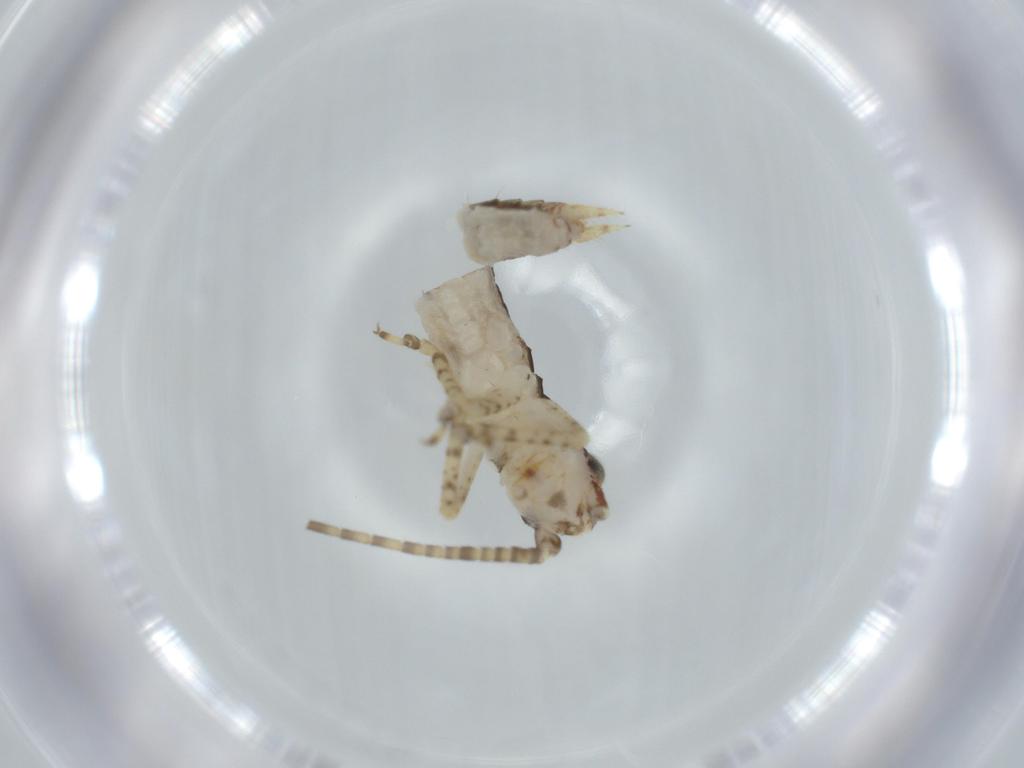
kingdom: Animalia
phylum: Arthropoda
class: Insecta
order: Orthoptera
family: Gryllidae
